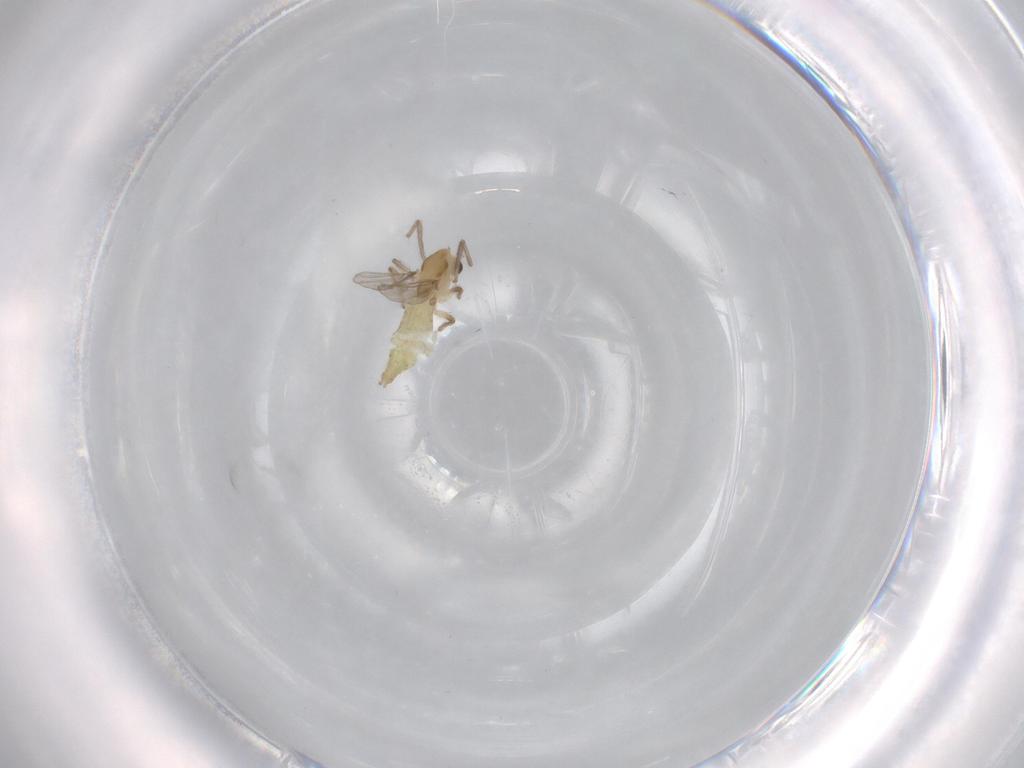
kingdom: Animalia
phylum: Arthropoda
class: Insecta
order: Diptera
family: Chironomidae
